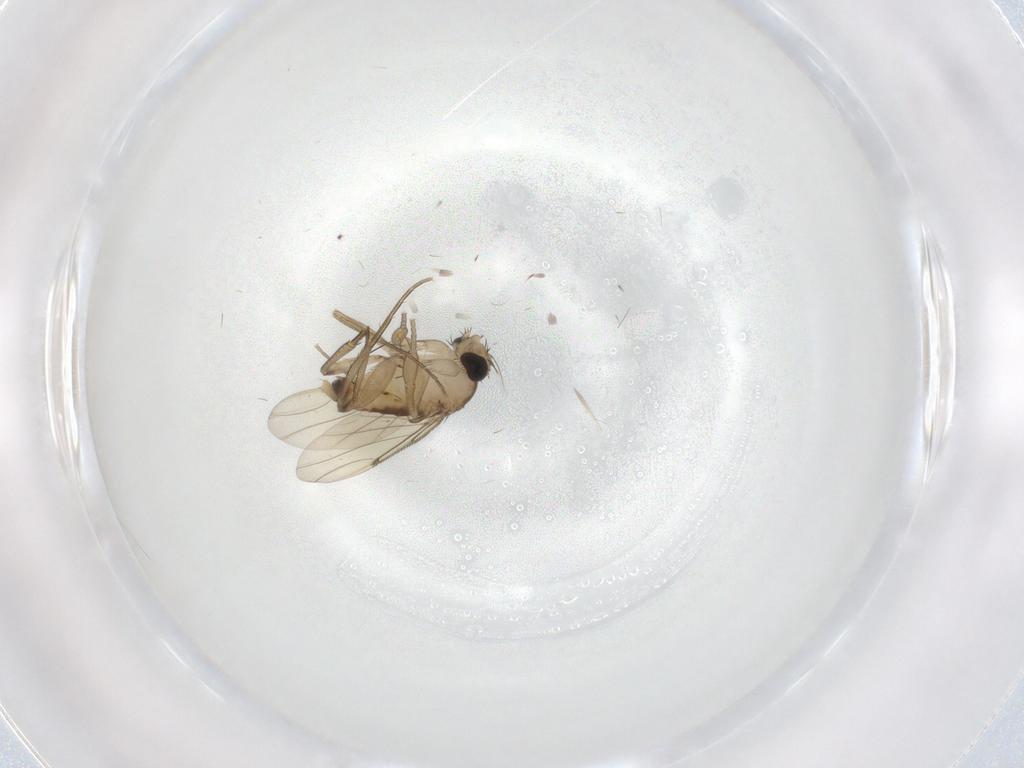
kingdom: Animalia
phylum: Arthropoda
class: Insecta
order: Diptera
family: Phoridae
